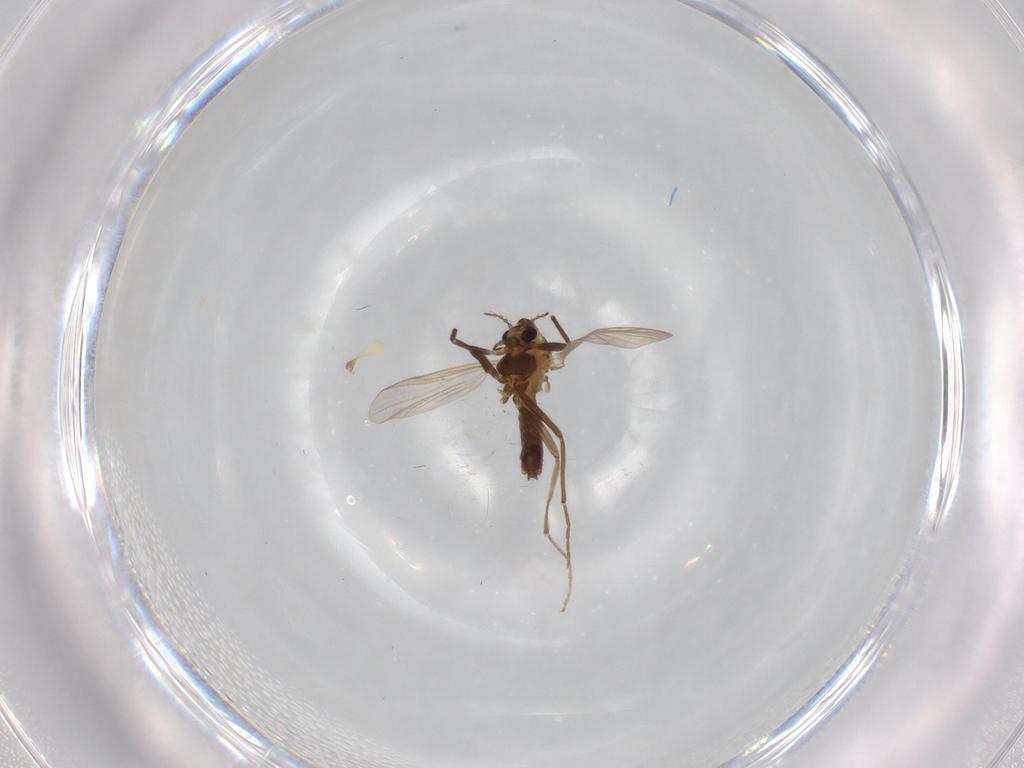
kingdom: Animalia
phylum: Arthropoda
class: Insecta
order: Diptera
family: Chironomidae
